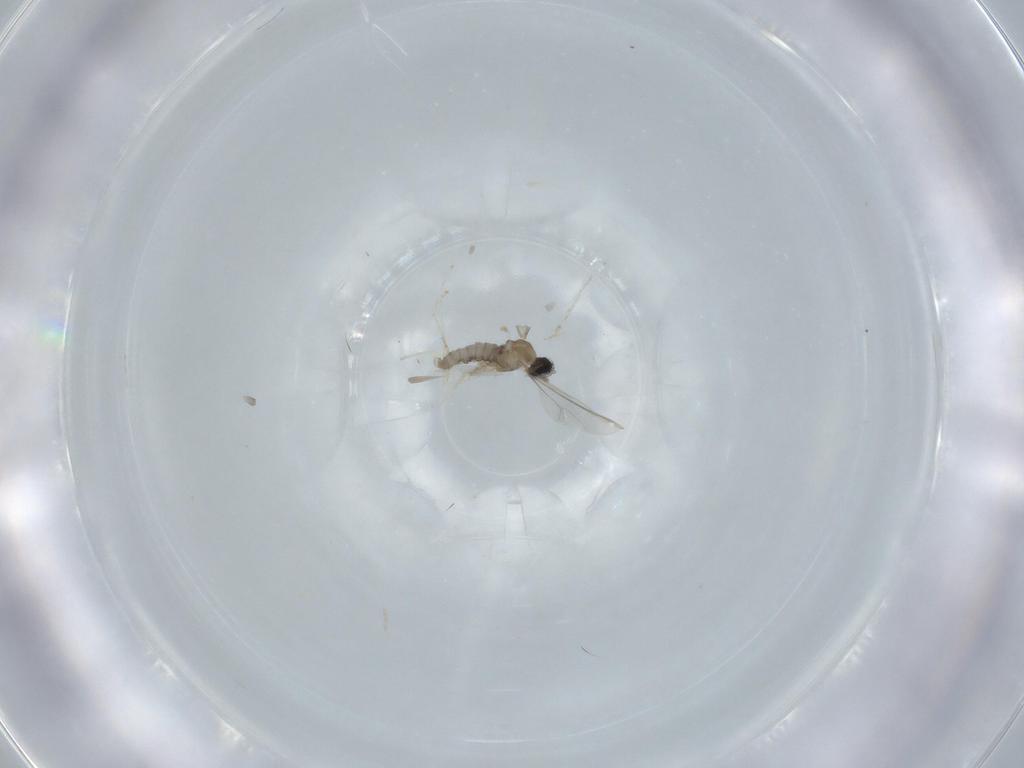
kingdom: Animalia
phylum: Arthropoda
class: Insecta
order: Diptera
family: Cecidomyiidae
